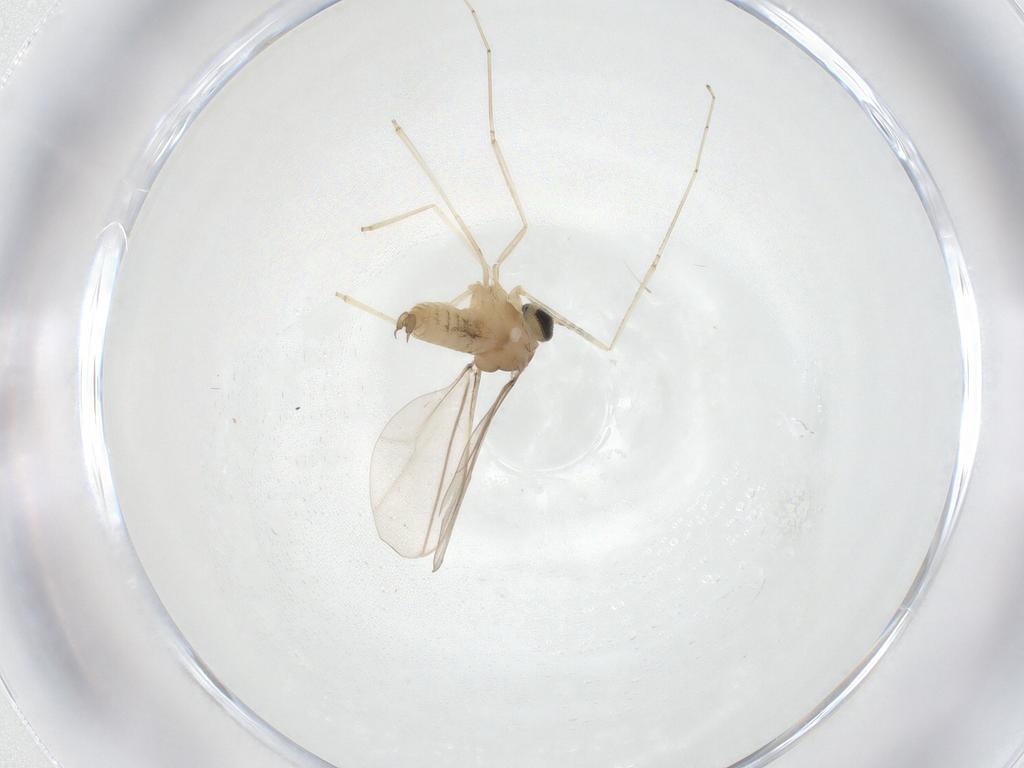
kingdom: Animalia
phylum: Arthropoda
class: Insecta
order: Diptera
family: Cecidomyiidae
